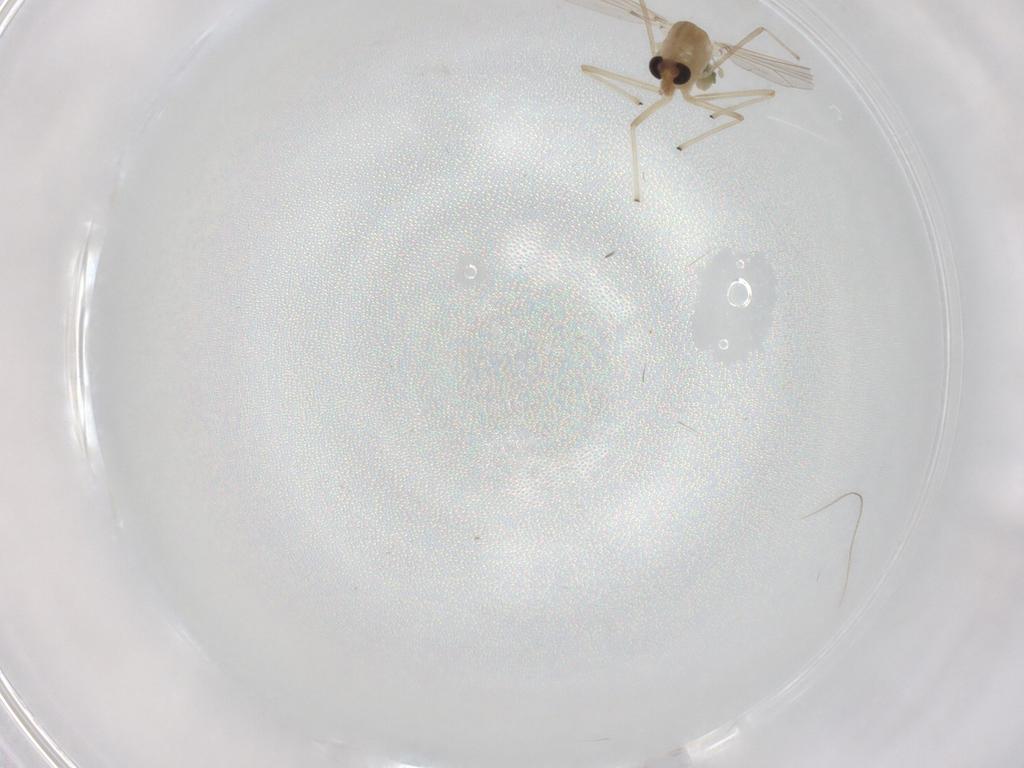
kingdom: Animalia
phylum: Arthropoda
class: Insecta
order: Diptera
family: Chironomidae
